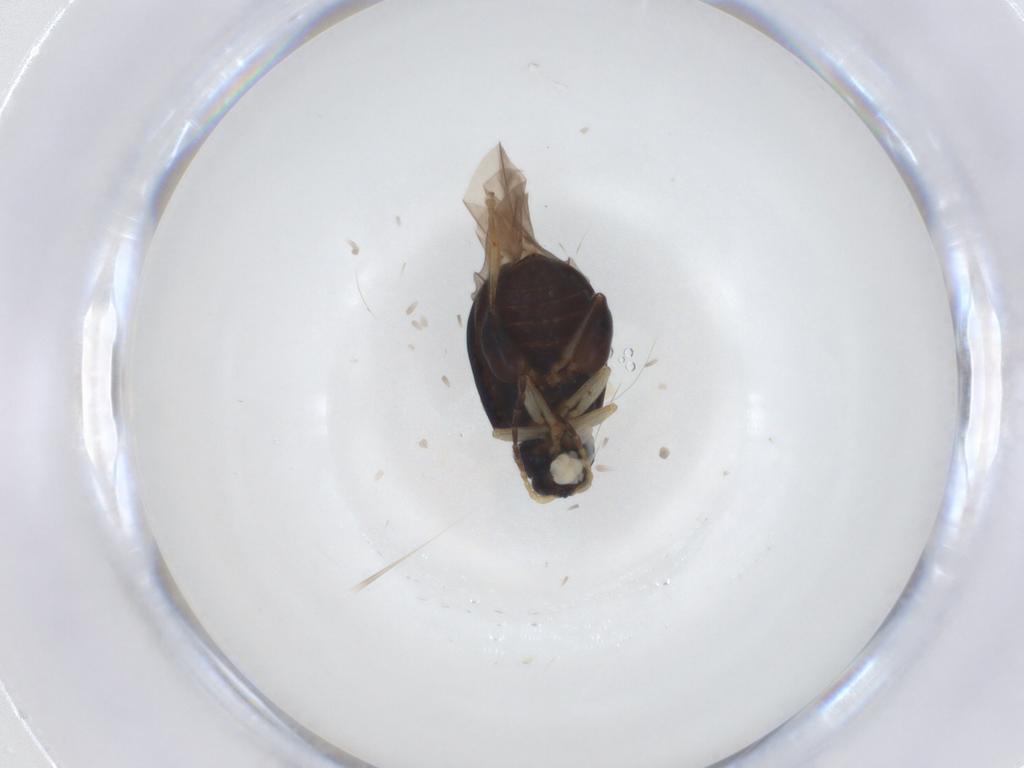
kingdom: Animalia
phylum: Arthropoda
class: Insecta
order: Coleoptera
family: Chrysomelidae
